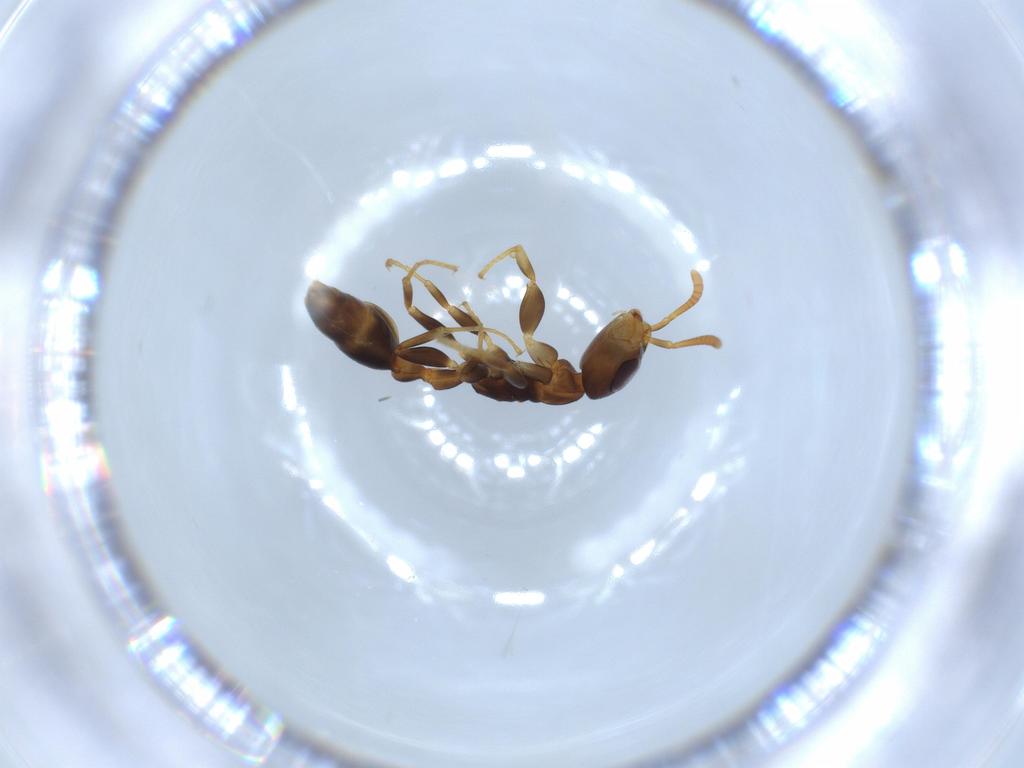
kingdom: Animalia
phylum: Arthropoda
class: Insecta
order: Hymenoptera
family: Formicidae
